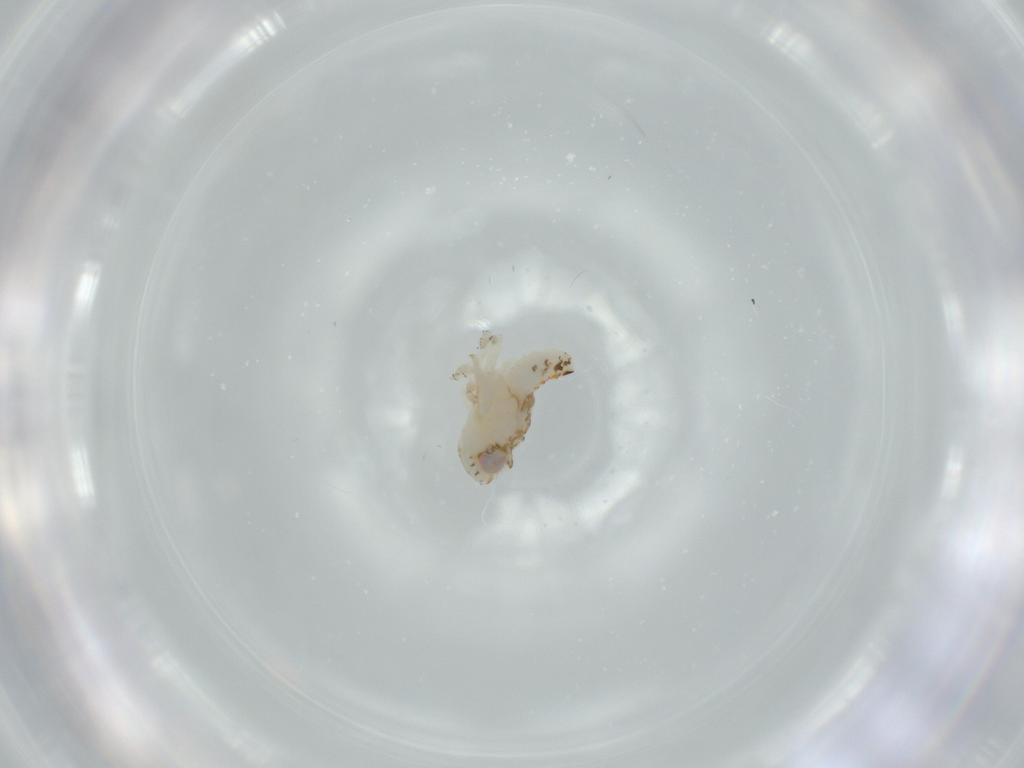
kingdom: Animalia
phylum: Arthropoda
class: Insecta
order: Hemiptera
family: Nogodinidae
